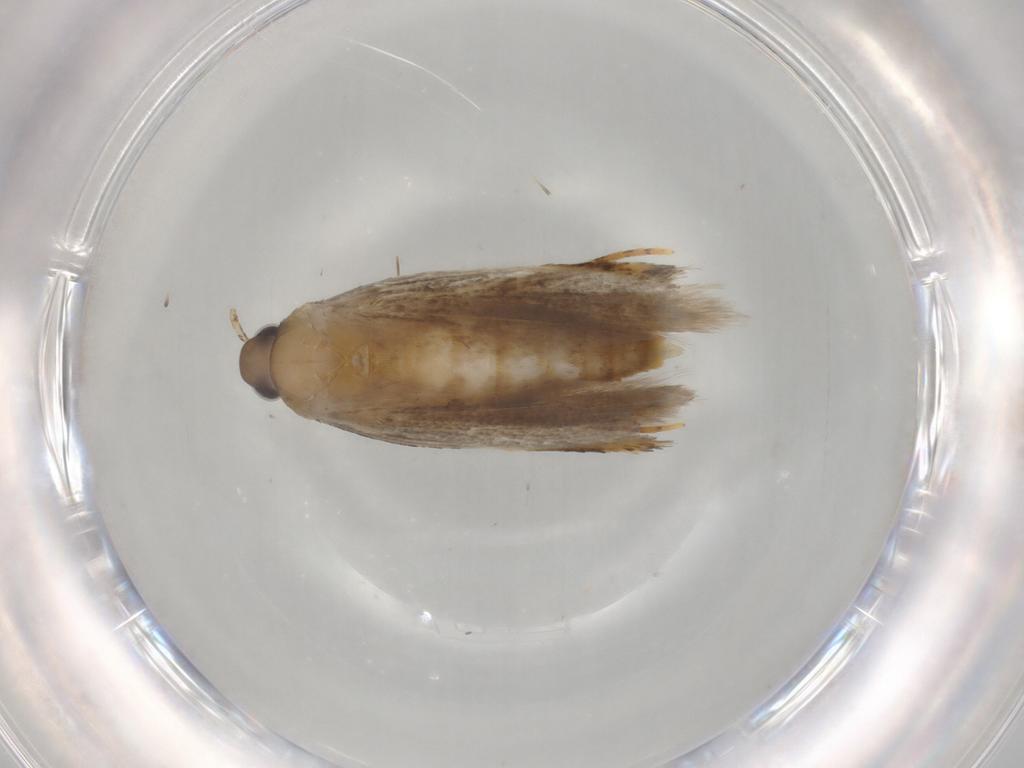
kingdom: Animalia
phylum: Arthropoda
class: Insecta
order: Lepidoptera
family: Autostichidae
